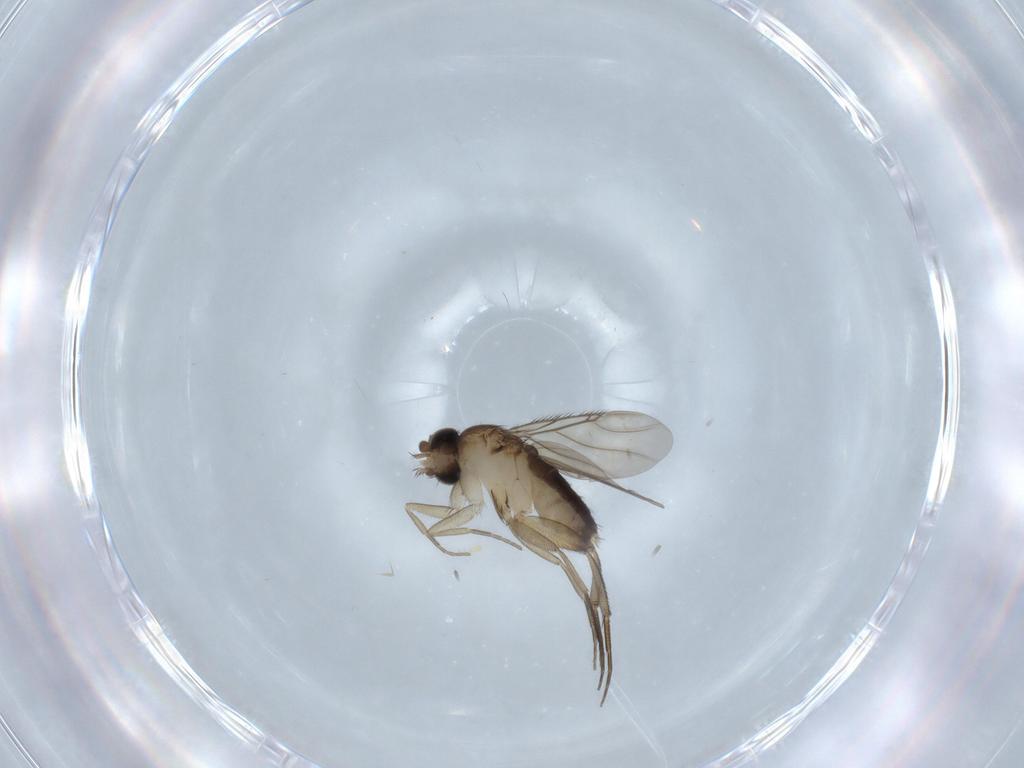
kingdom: Animalia
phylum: Arthropoda
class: Insecta
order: Diptera
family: Phoridae
